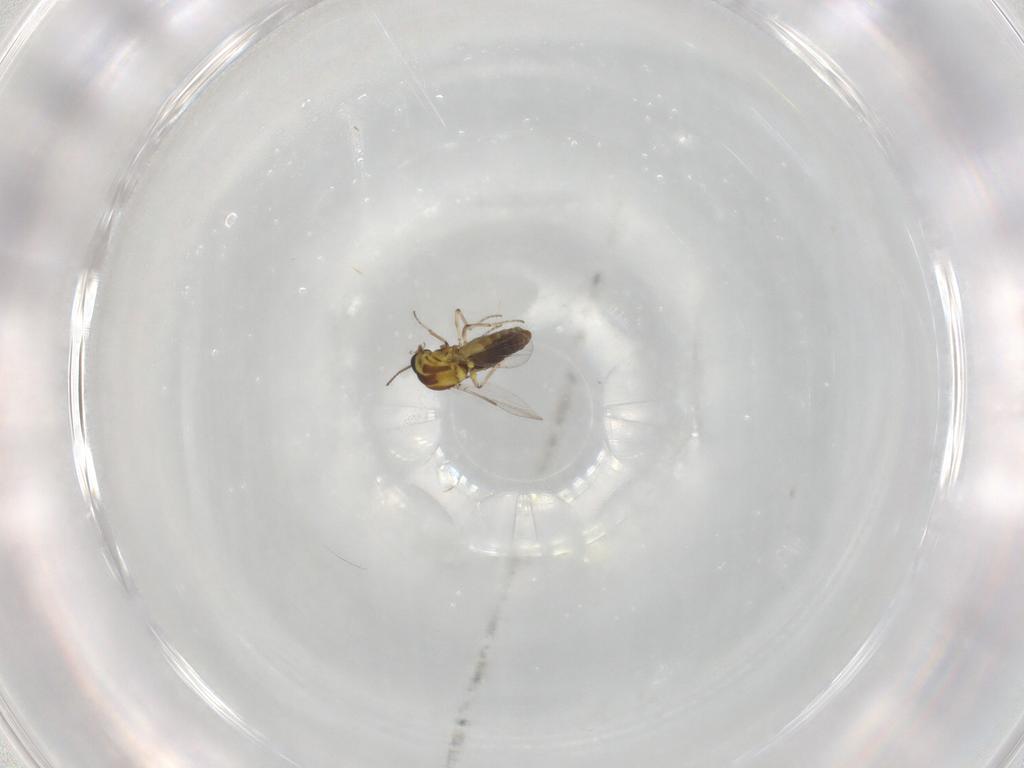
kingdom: Animalia
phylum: Arthropoda
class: Insecta
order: Diptera
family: Ceratopogonidae
